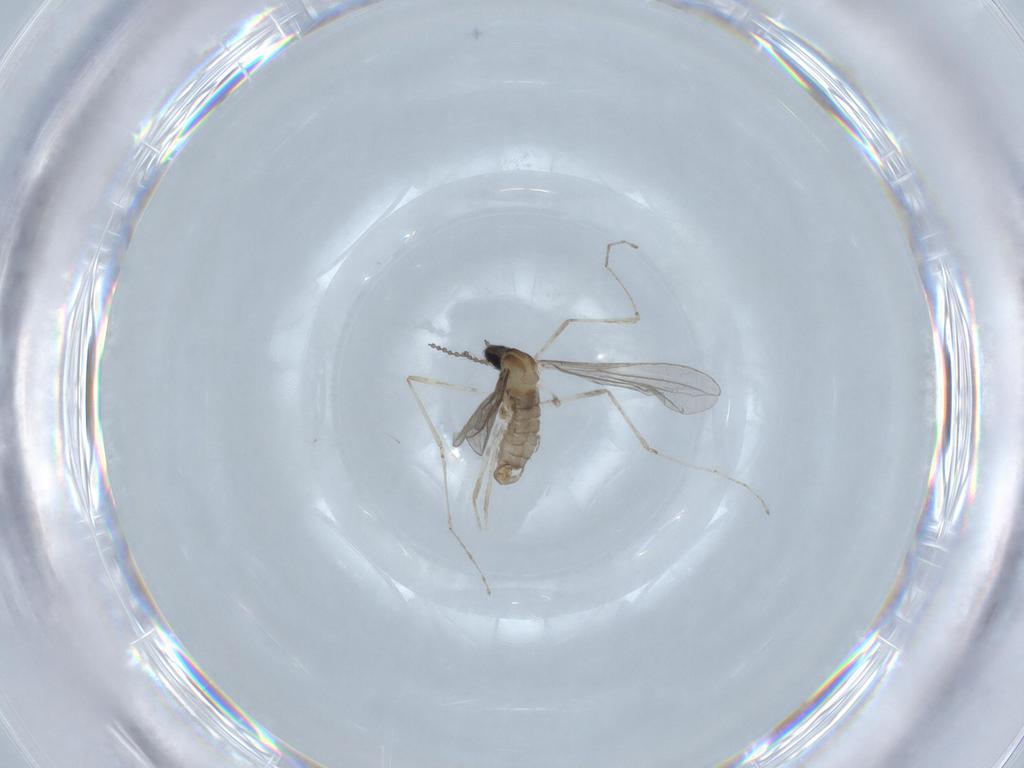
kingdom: Animalia
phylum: Arthropoda
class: Insecta
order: Diptera
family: Cecidomyiidae
